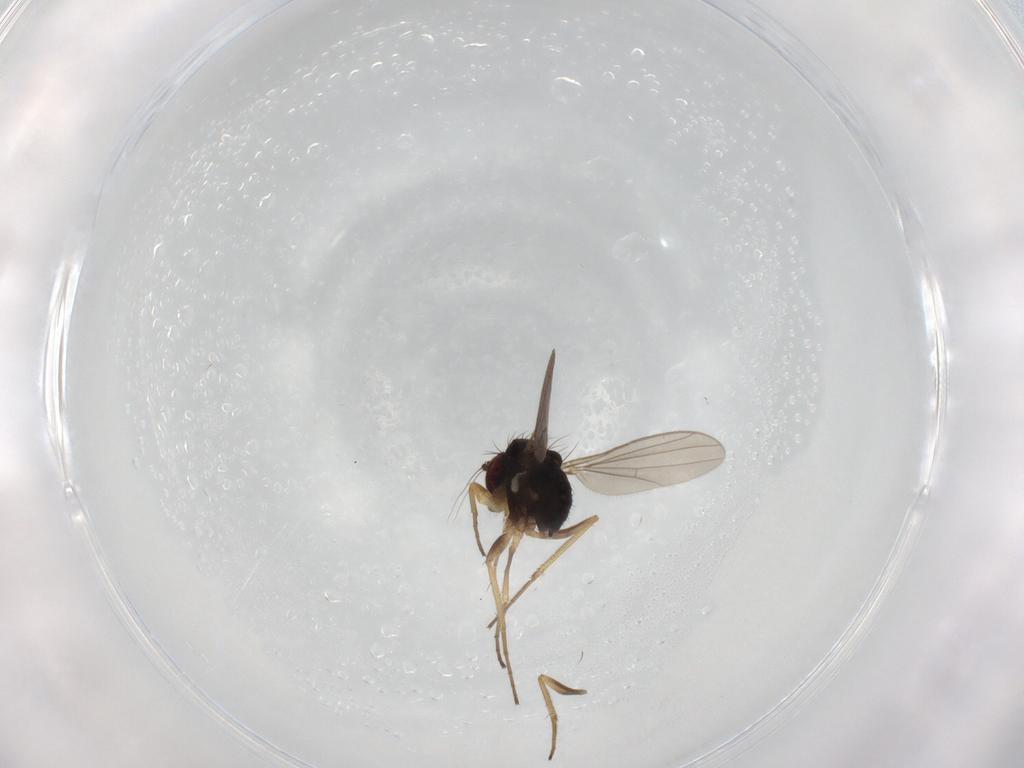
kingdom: Animalia
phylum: Arthropoda
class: Insecta
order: Diptera
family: Dolichopodidae
